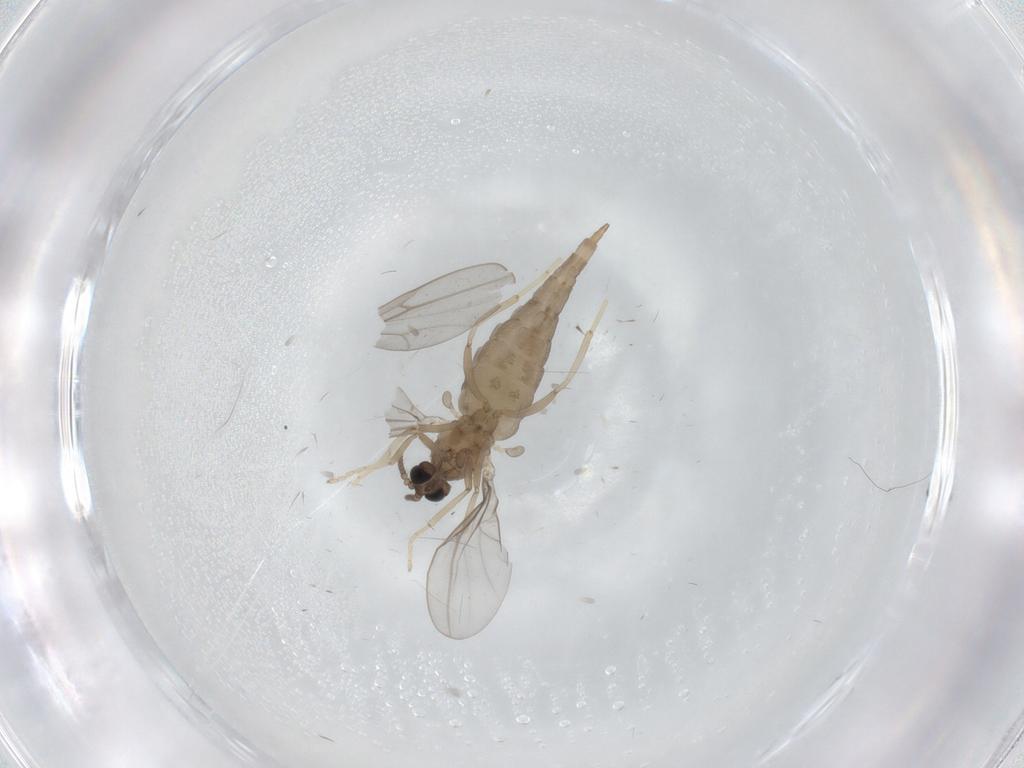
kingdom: Animalia
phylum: Arthropoda
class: Insecta
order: Diptera
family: Cecidomyiidae
